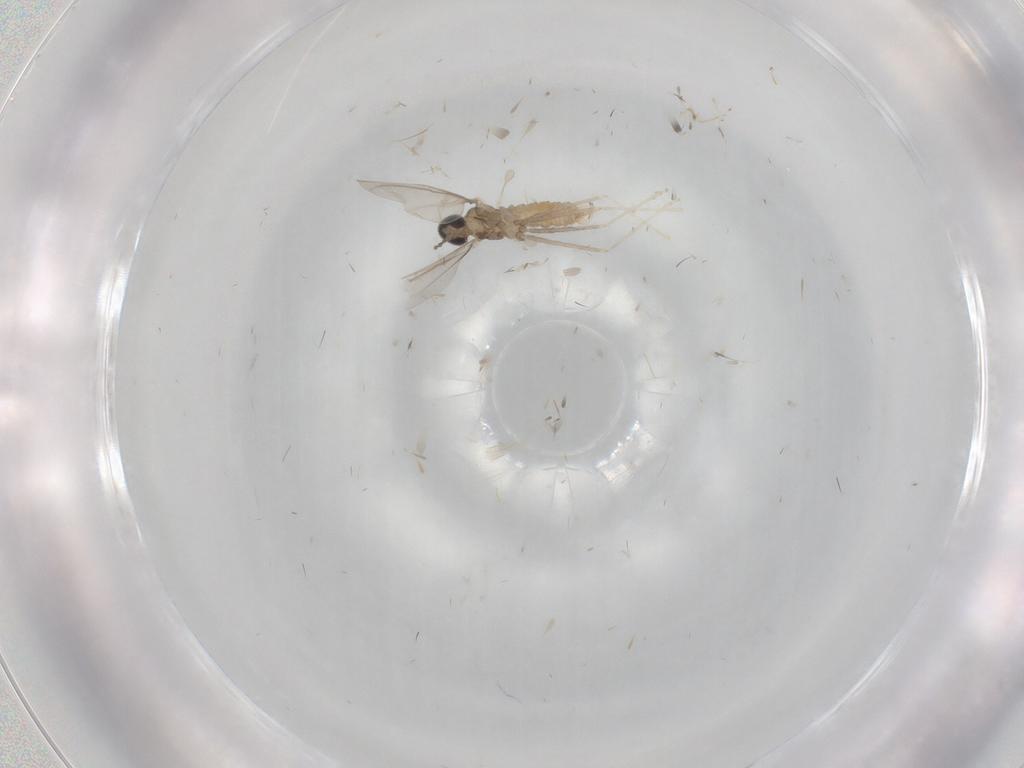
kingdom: Animalia
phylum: Arthropoda
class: Insecta
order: Diptera
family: Cecidomyiidae
